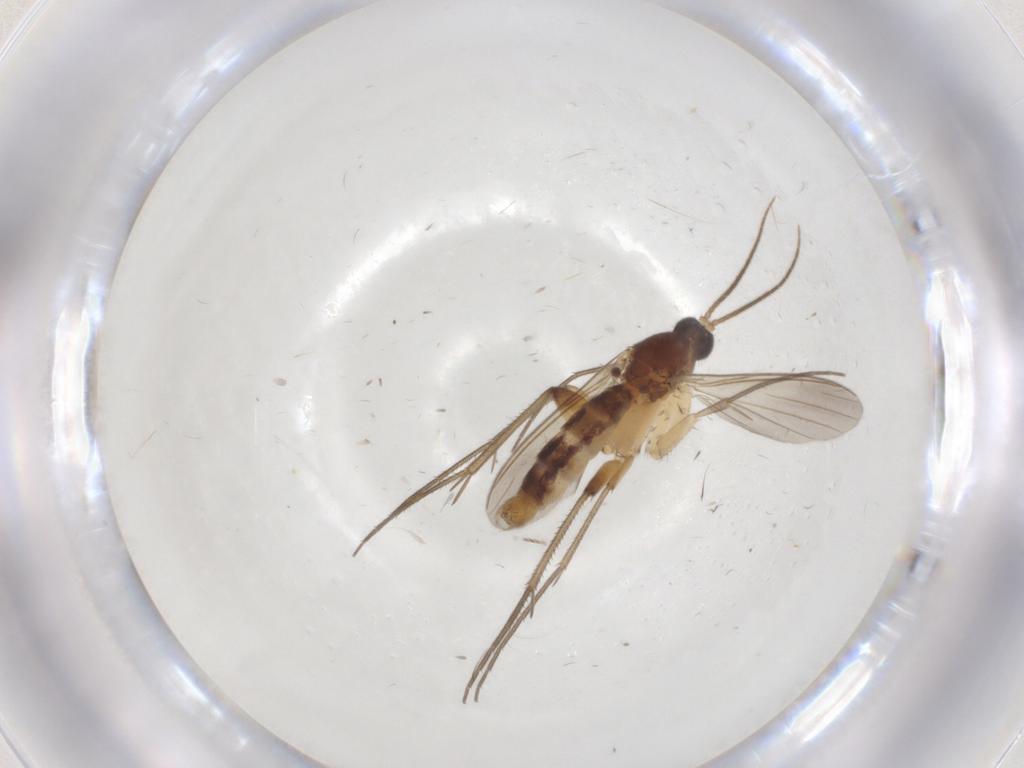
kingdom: Animalia
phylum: Arthropoda
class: Insecta
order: Diptera
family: Mycetophilidae
